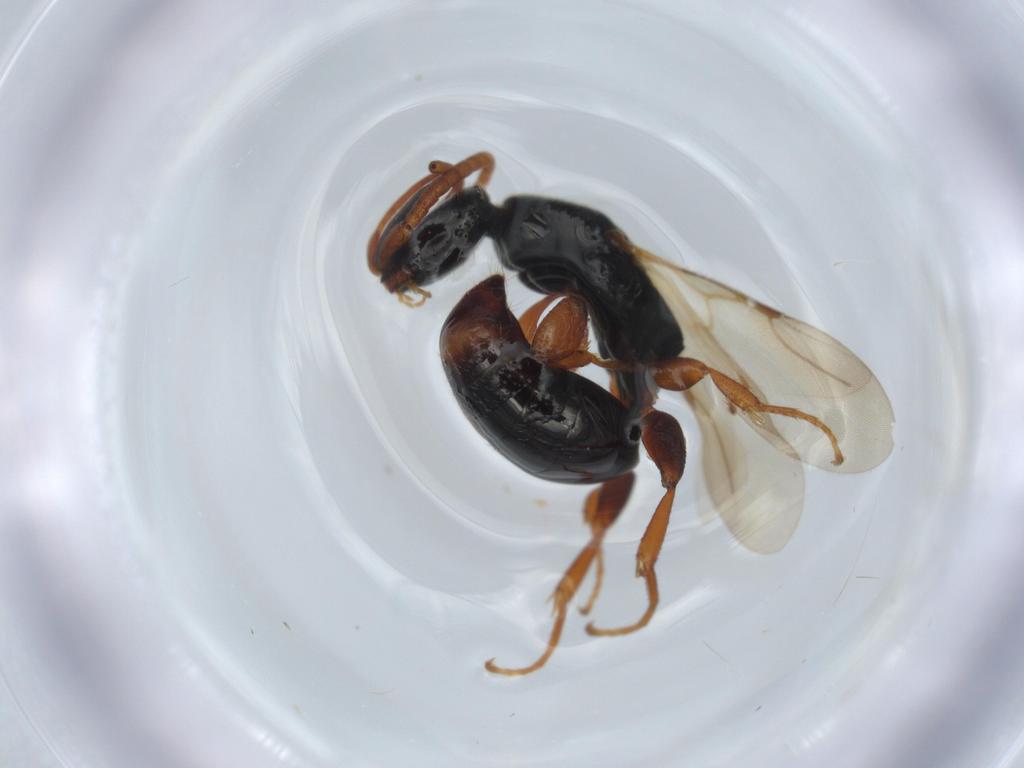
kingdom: Animalia
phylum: Arthropoda
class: Insecta
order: Hymenoptera
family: Bethylidae
